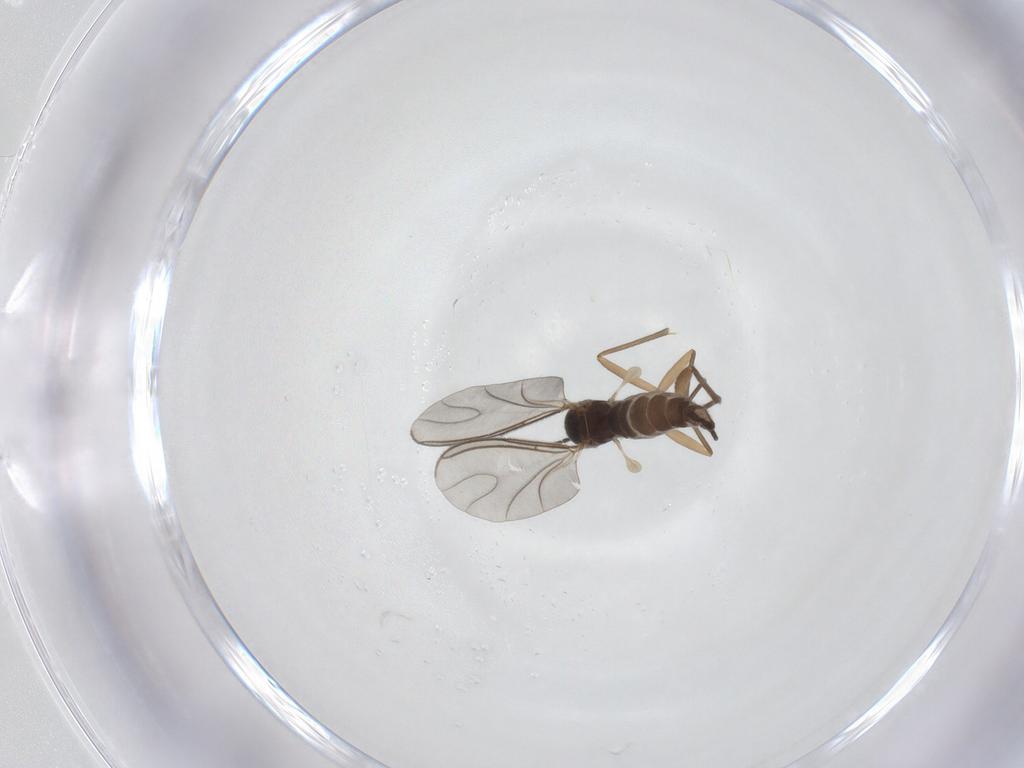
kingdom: Animalia
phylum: Arthropoda
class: Insecta
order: Diptera
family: Sciaridae
